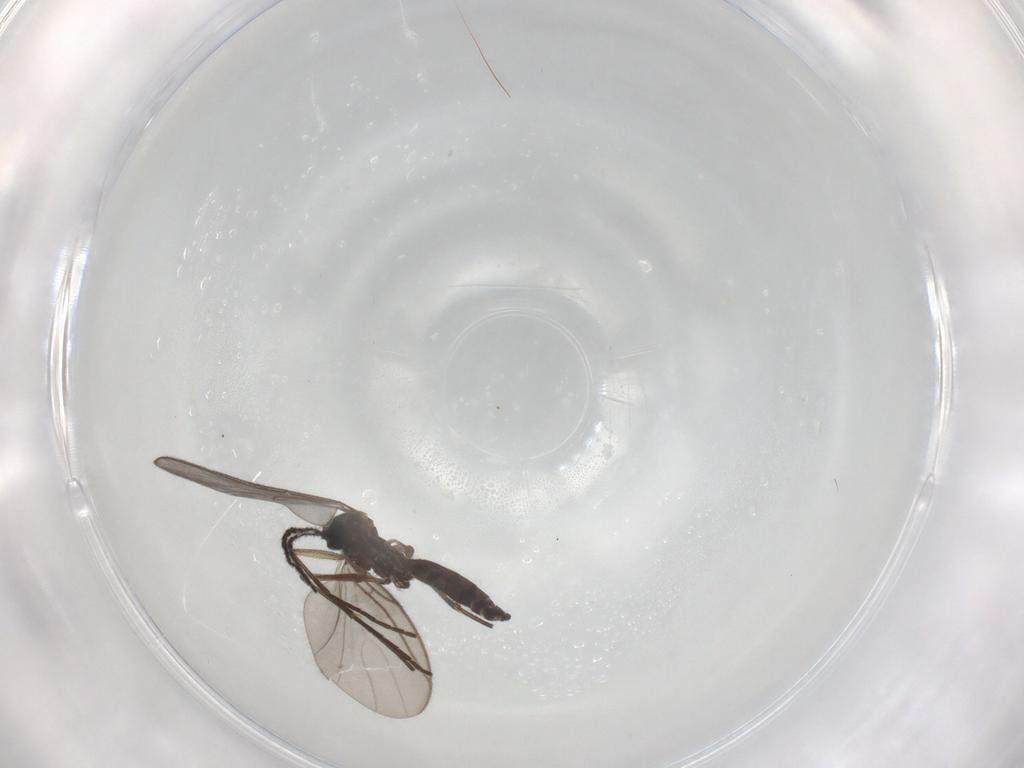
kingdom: Animalia
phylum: Arthropoda
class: Insecta
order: Diptera
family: Sciaridae
